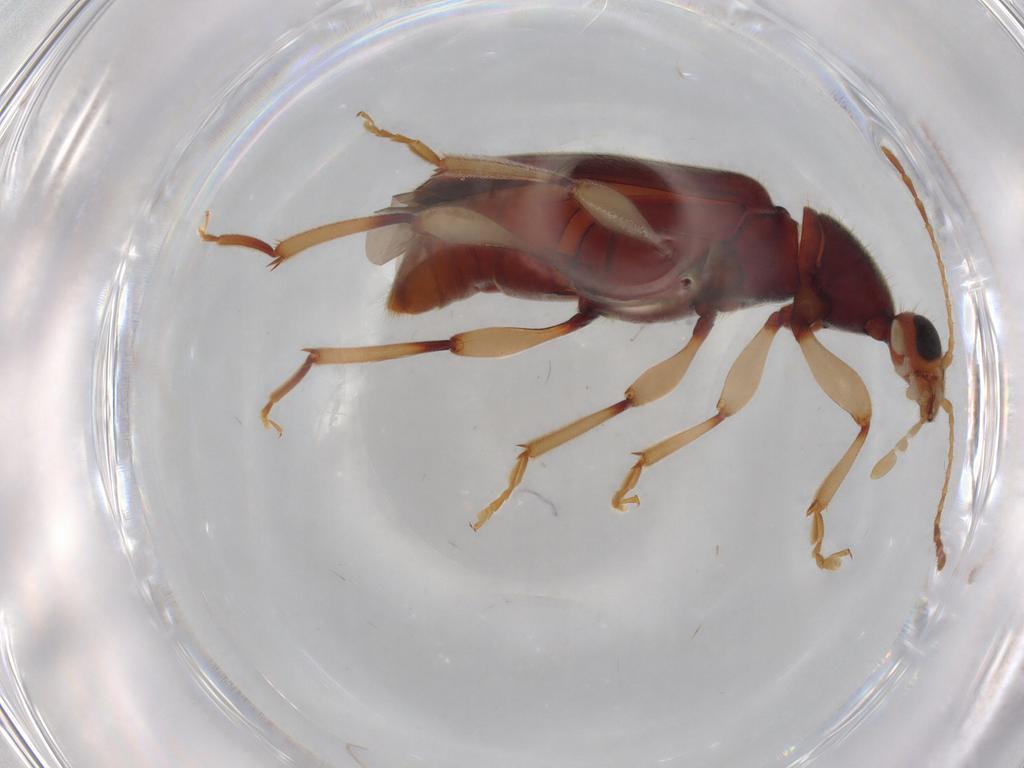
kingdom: Animalia
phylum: Arthropoda
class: Insecta
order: Coleoptera
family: Anthicidae
